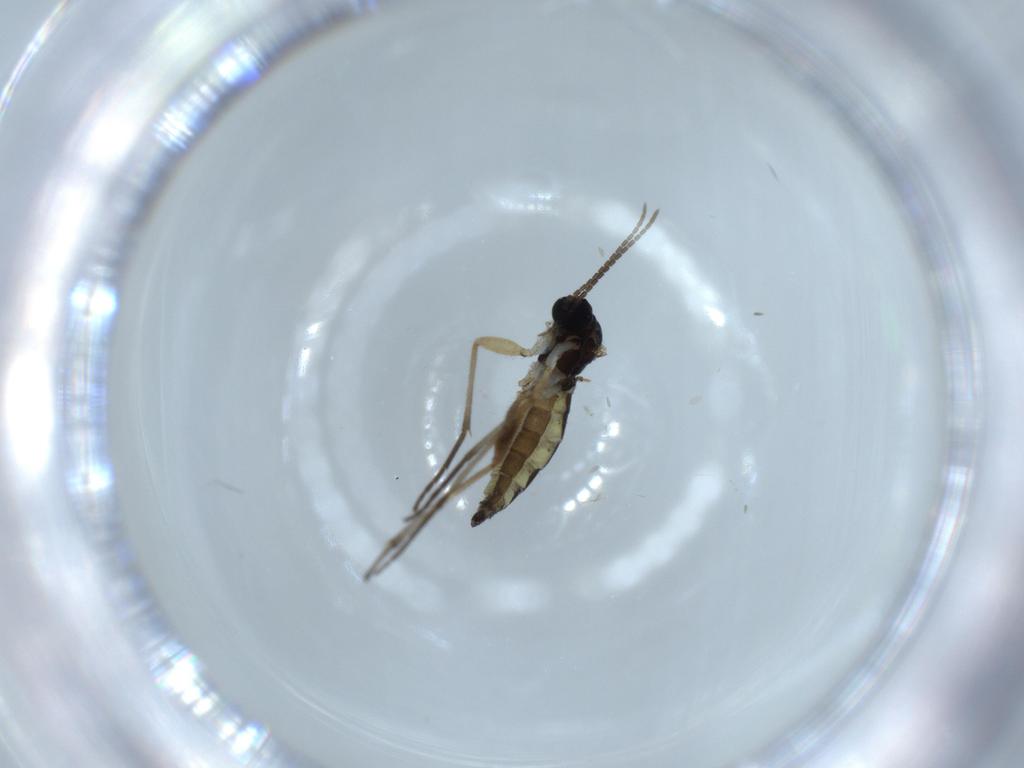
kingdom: Animalia
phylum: Arthropoda
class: Insecta
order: Diptera
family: Sciaridae
